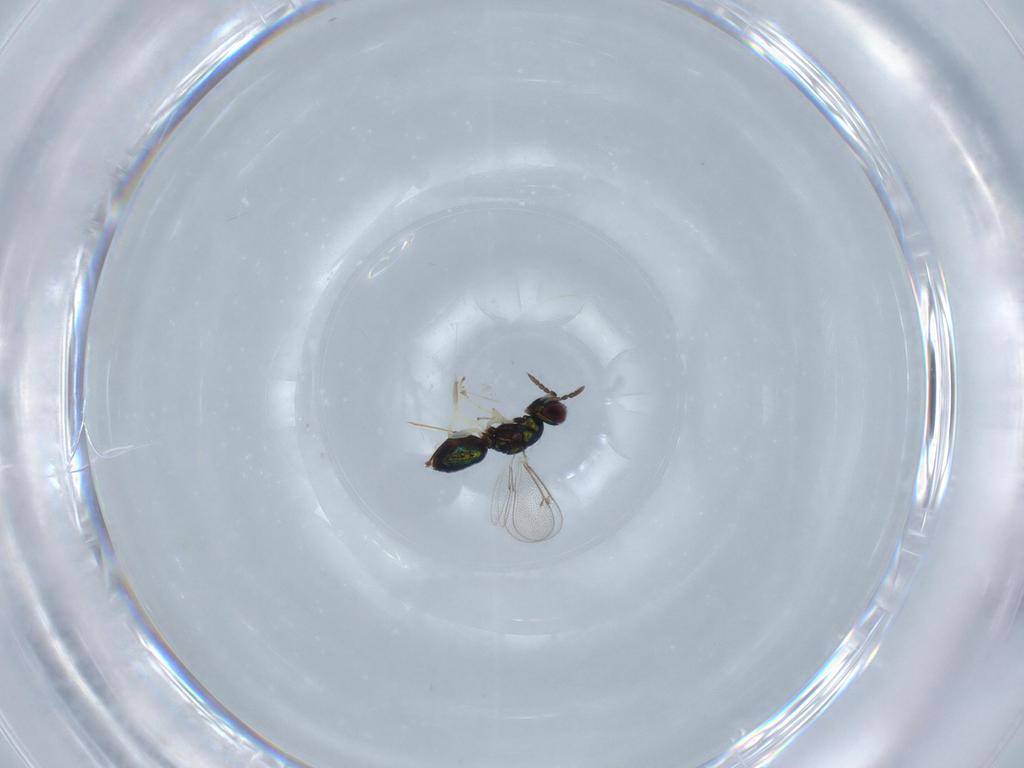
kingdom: Animalia
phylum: Arthropoda
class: Insecta
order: Hymenoptera
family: Eulophidae
